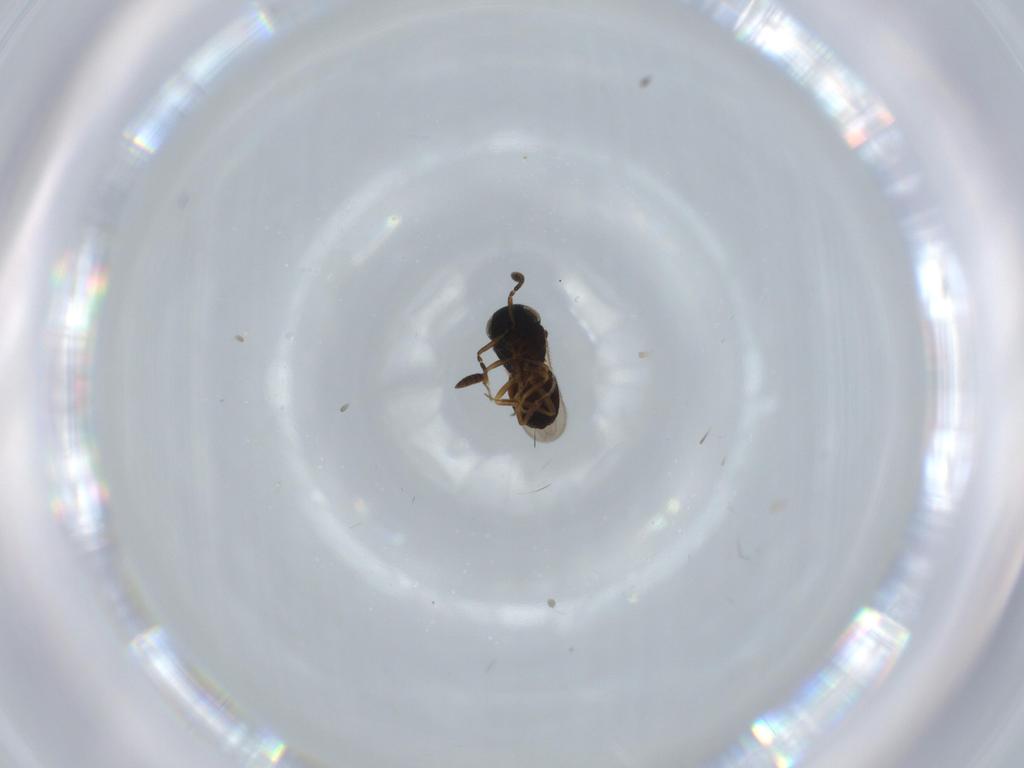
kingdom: Animalia
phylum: Arthropoda
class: Insecta
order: Coleoptera
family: Curculionidae
